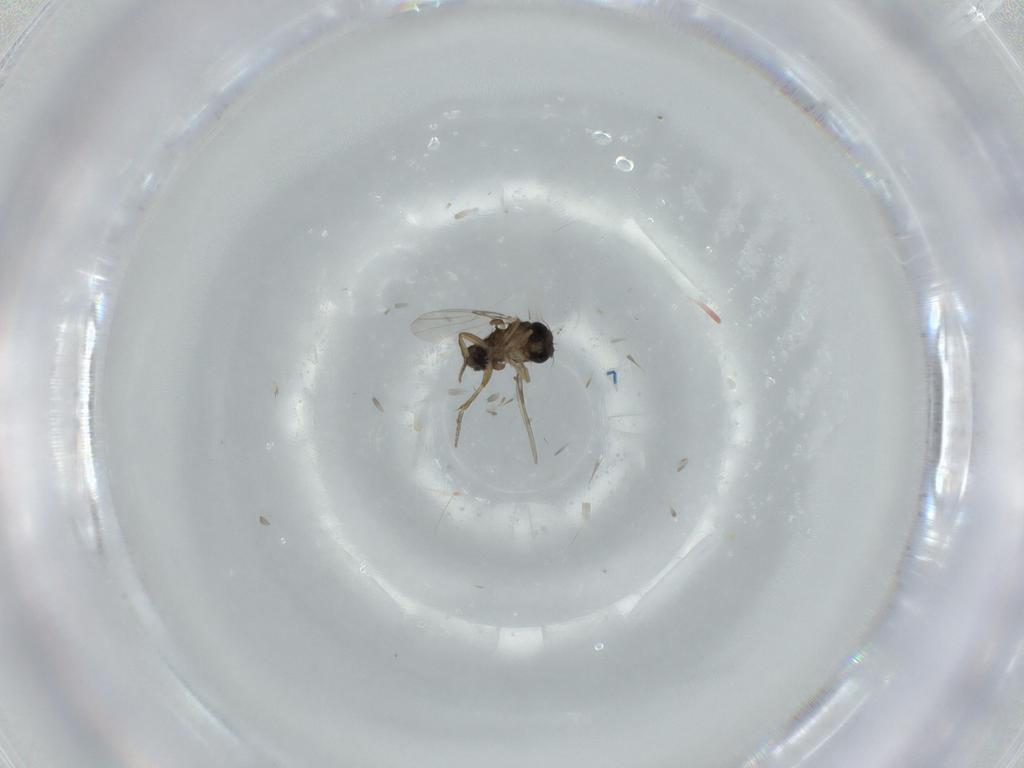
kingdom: Animalia
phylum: Arthropoda
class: Insecta
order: Diptera
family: Phoridae
